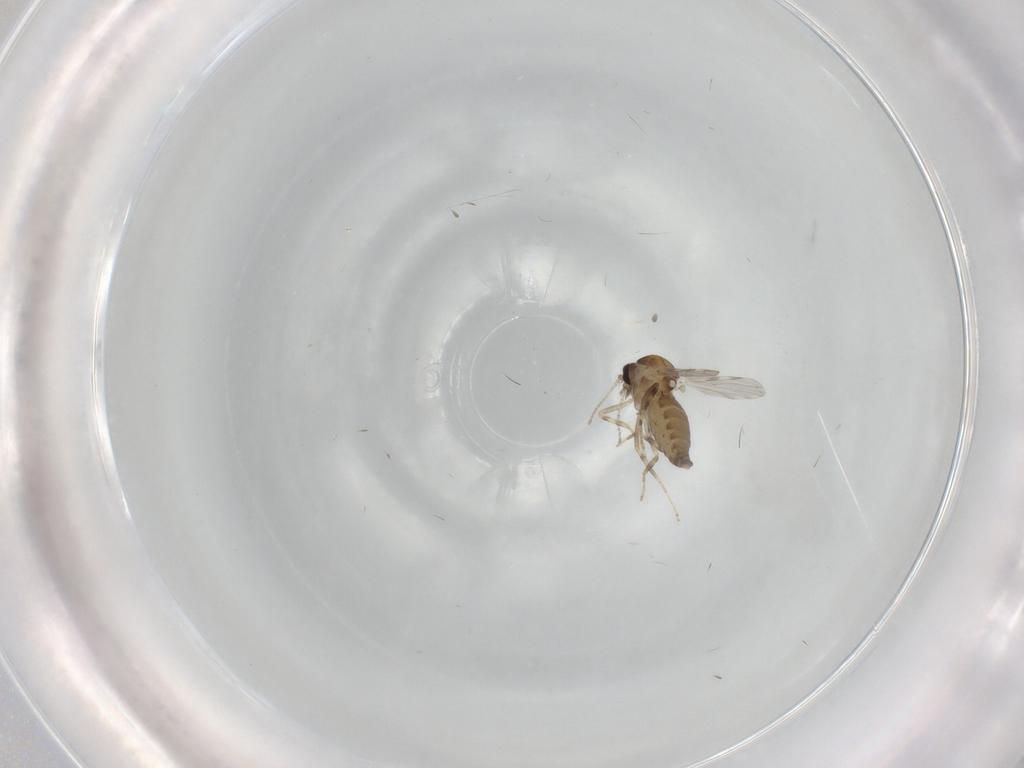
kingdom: Animalia
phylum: Arthropoda
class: Insecta
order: Diptera
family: Ceratopogonidae
